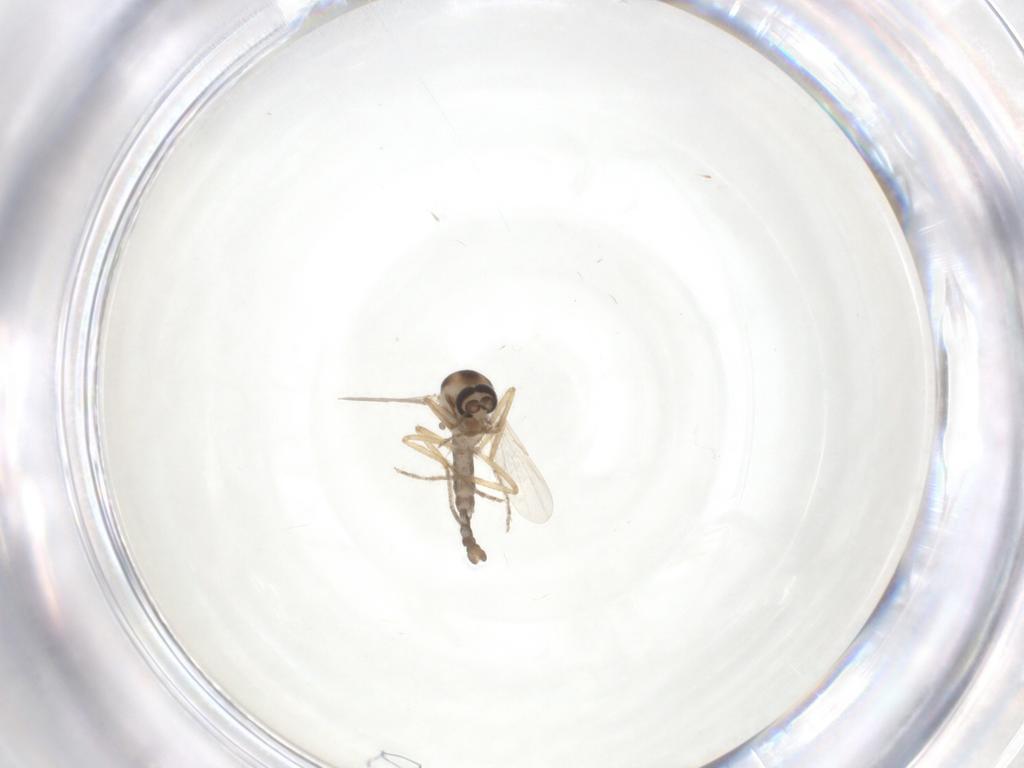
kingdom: Animalia
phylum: Arthropoda
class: Insecta
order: Diptera
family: Ceratopogonidae
